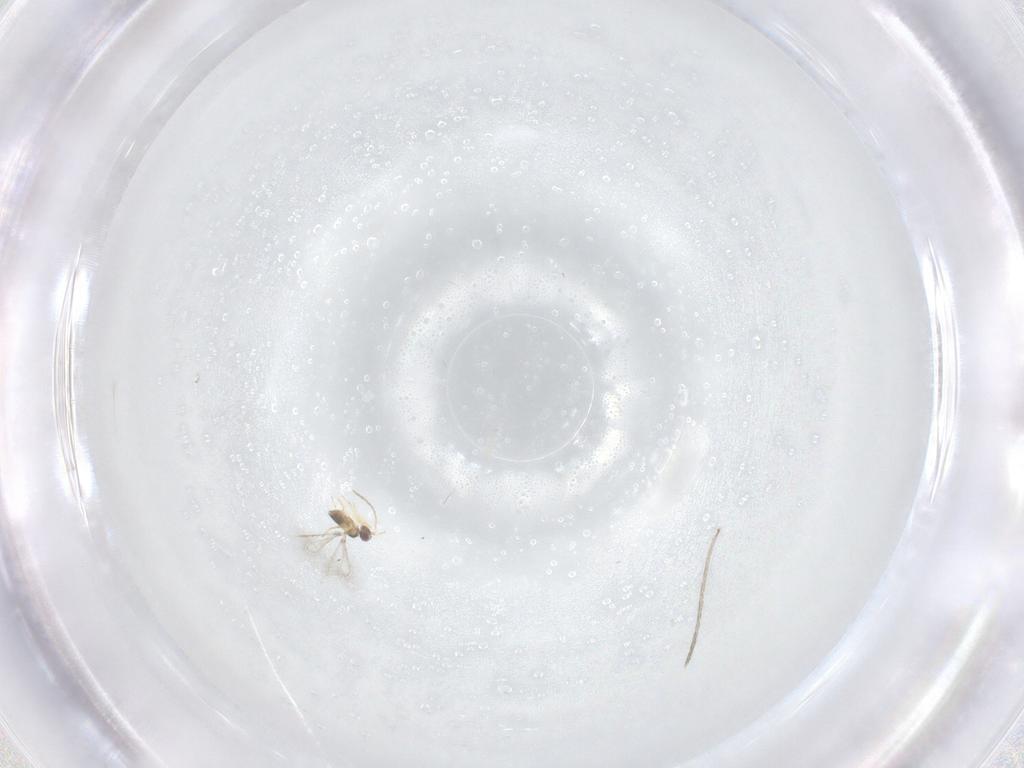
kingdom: Animalia
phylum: Arthropoda
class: Insecta
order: Hymenoptera
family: Mymaridae
